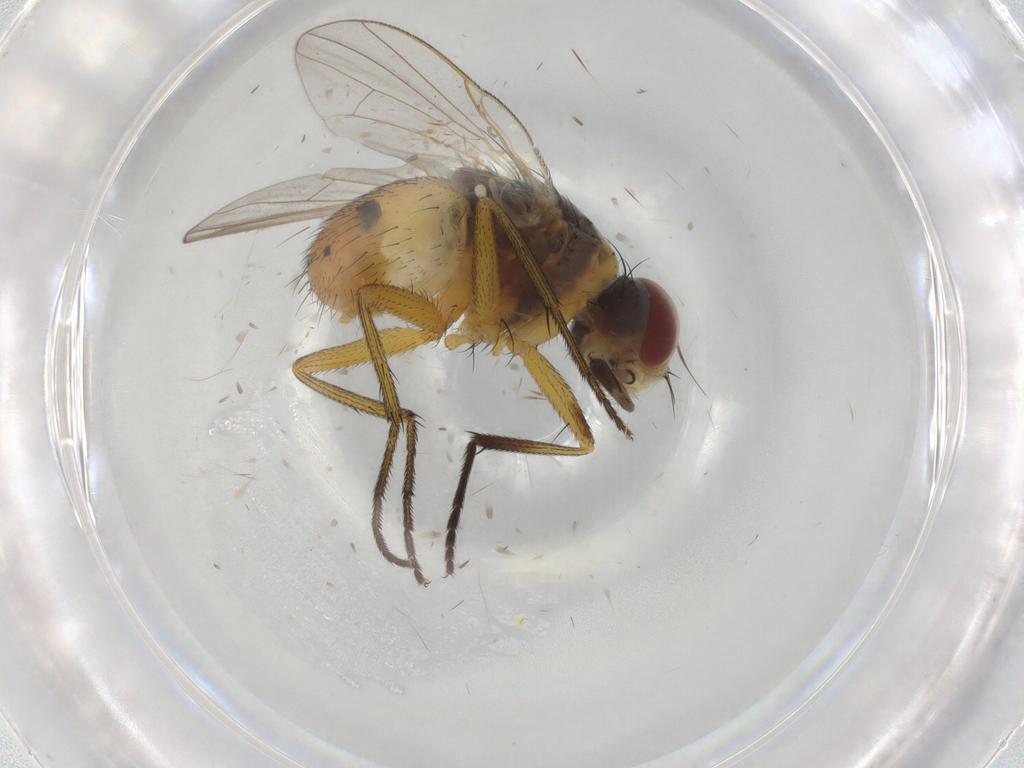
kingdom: Animalia
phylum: Arthropoda
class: Insecta
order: Diptera
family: Muscidae
